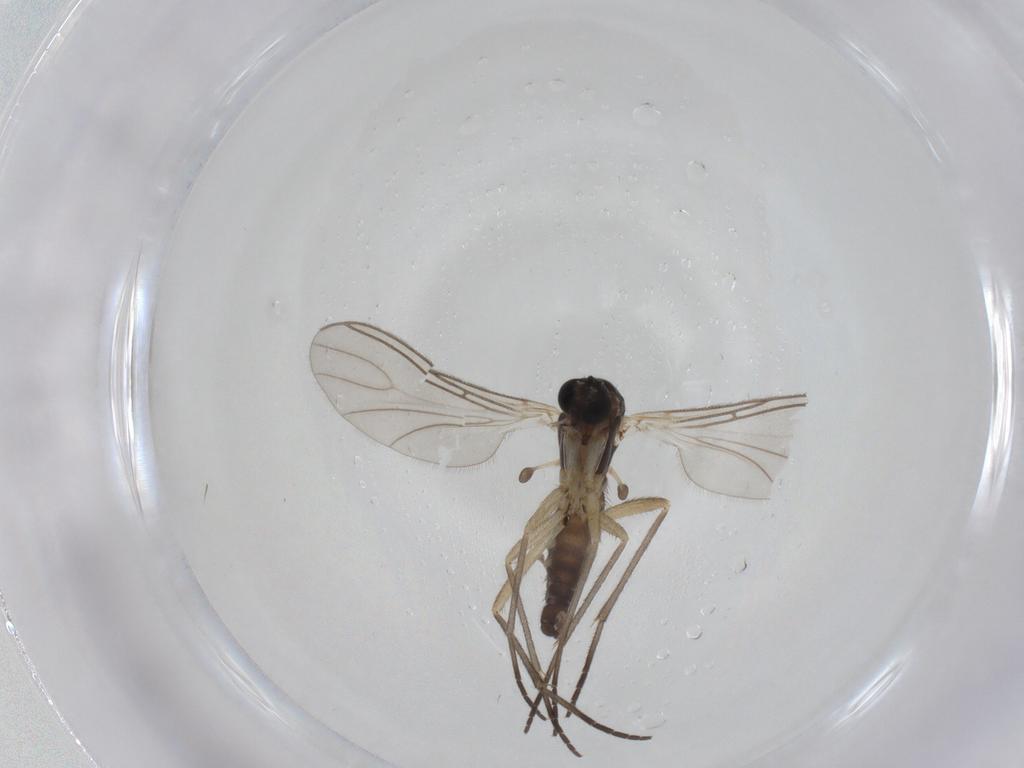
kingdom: Animalia
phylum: Arthropoda
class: Insecta
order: Diptera
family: Sciaridae
